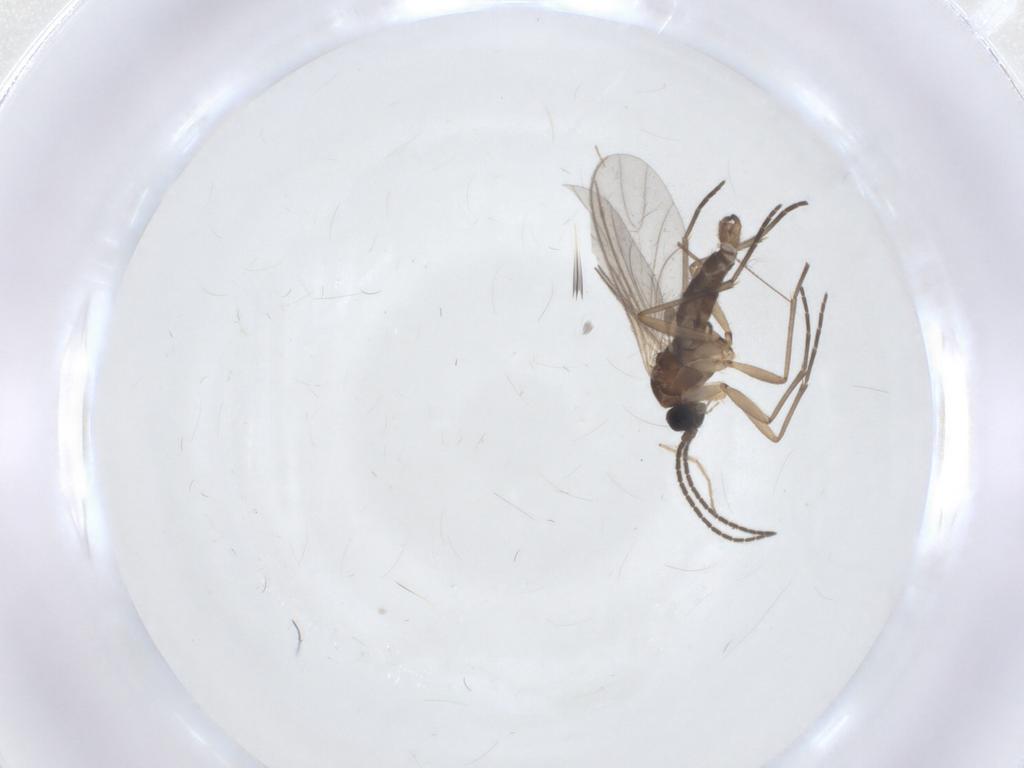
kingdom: Animalia
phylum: Arthropoda
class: Insecta
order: Diptera
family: Chironomidae
